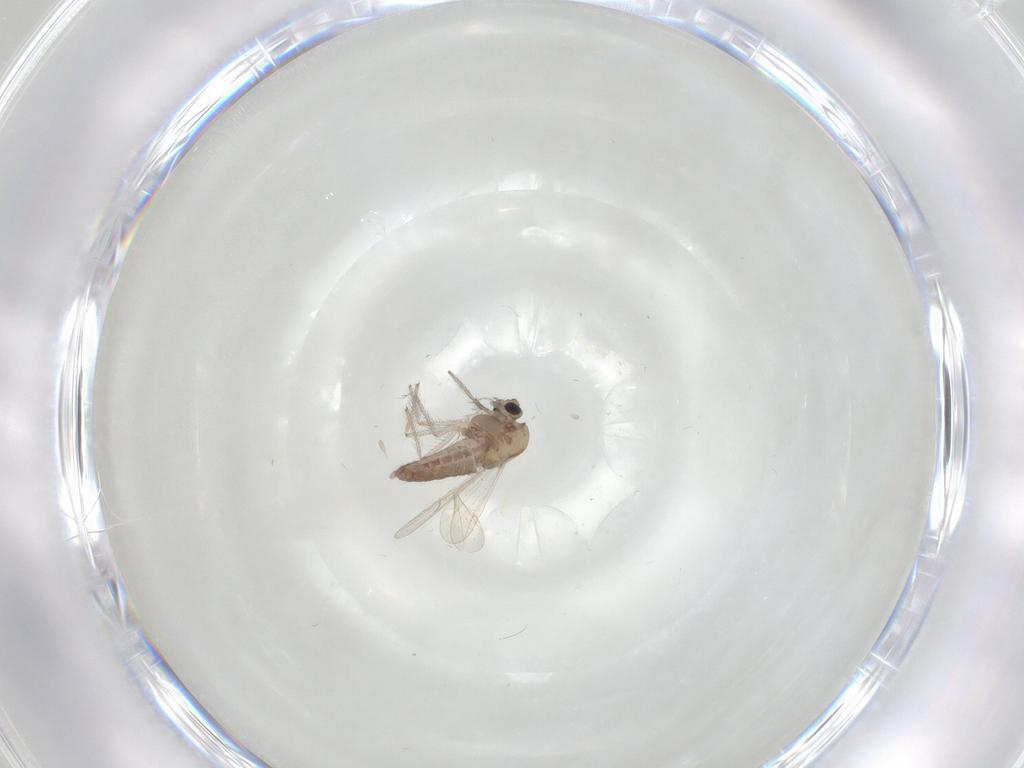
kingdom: Animalia
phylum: Arthropoda
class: Insecta
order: Diptera
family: Chironomidae
